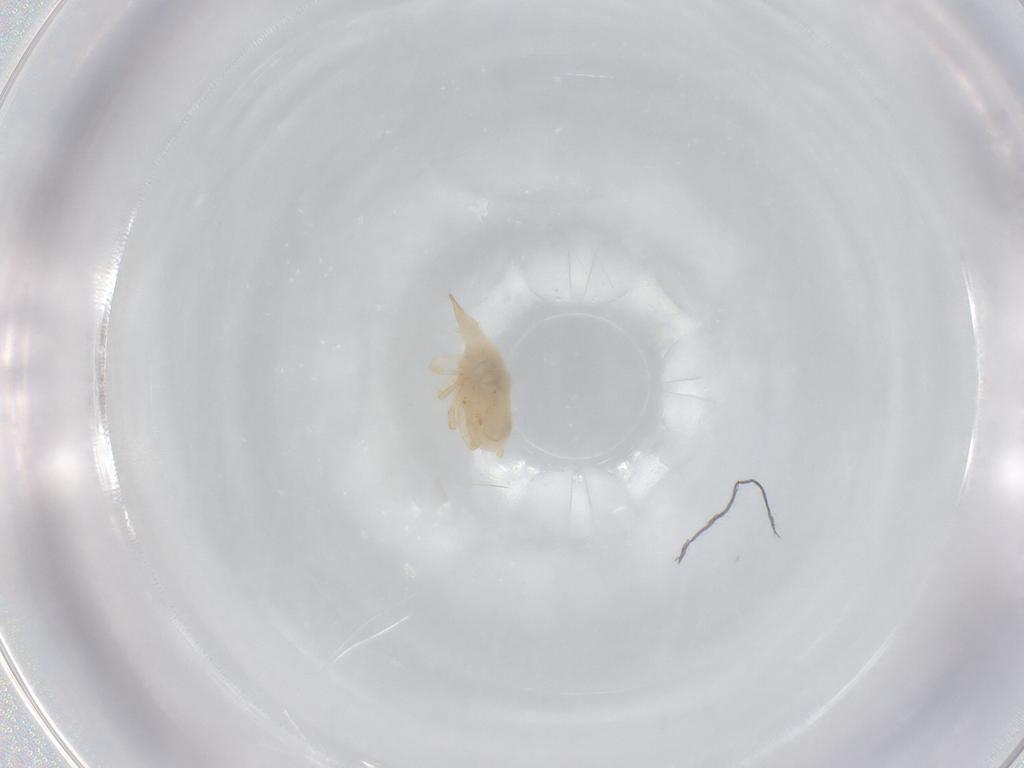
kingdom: Animalia
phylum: Arthropoda
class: Arachnida
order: Trombidiformes
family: Bdellidae
